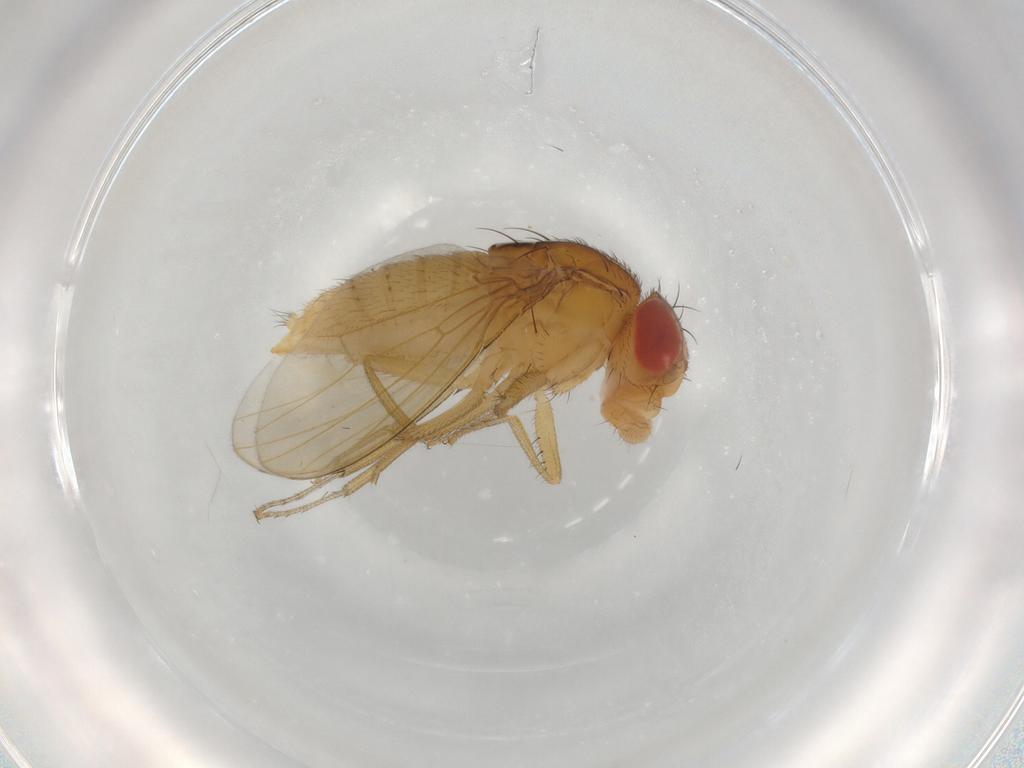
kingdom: Animalia
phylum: Arthropoda
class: Insecta
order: Diptera
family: Drosophilidae
